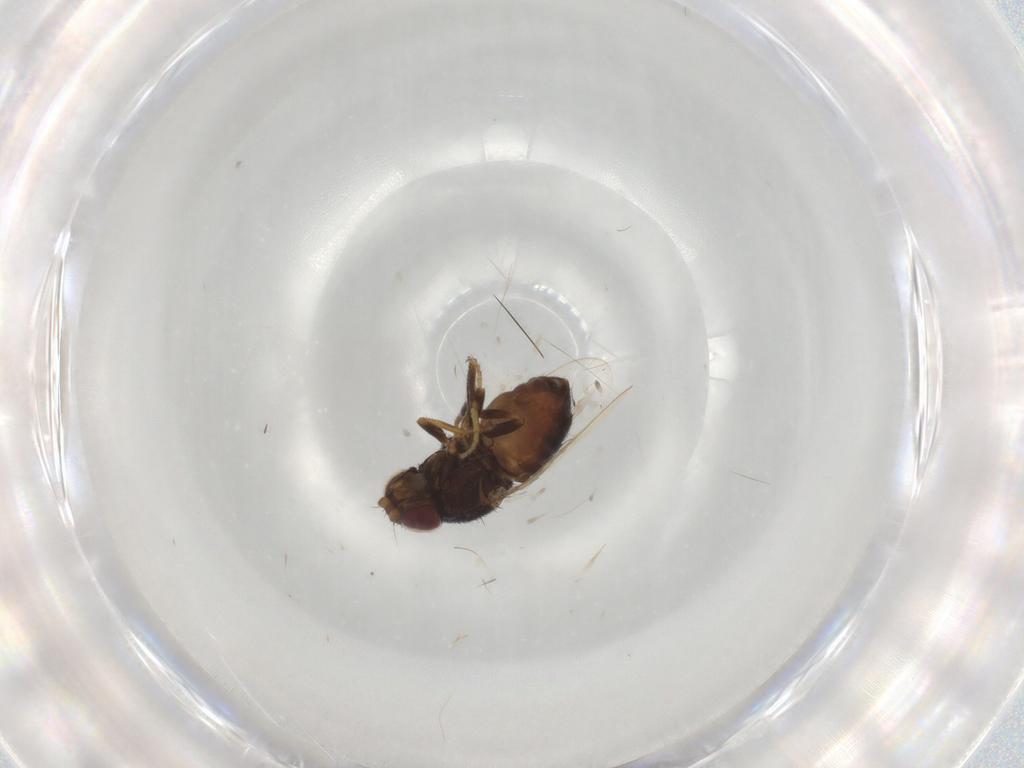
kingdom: Animalia
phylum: Arthropoda
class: Insecta
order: Diptera
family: Chloropidae
